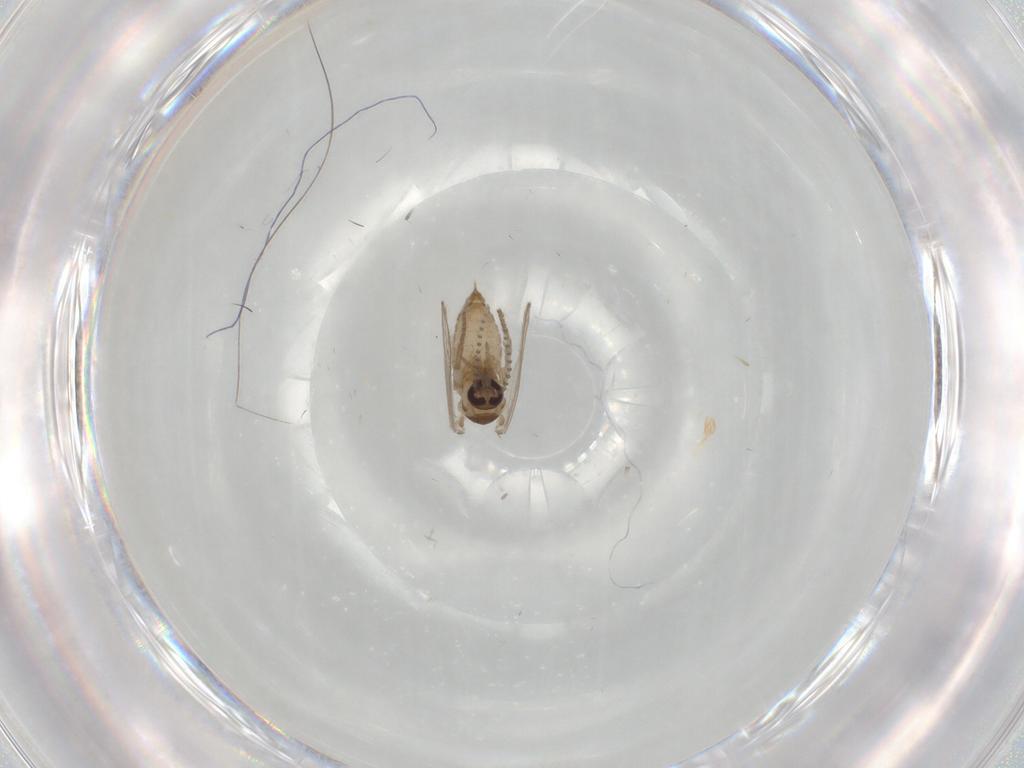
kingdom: Animalia
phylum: Arthropoda
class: Insecta
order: Diptera
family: Psychodidae
